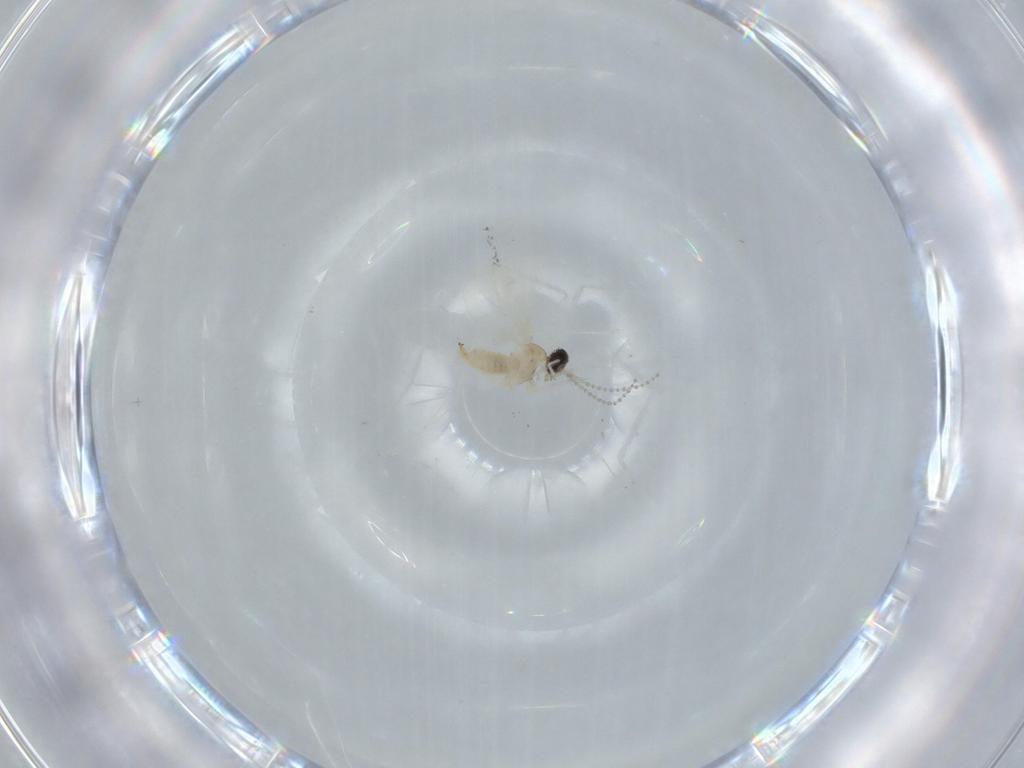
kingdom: Animalia
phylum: Arthropoda
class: Insecta
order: Diptera
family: Cecidomyiidae
